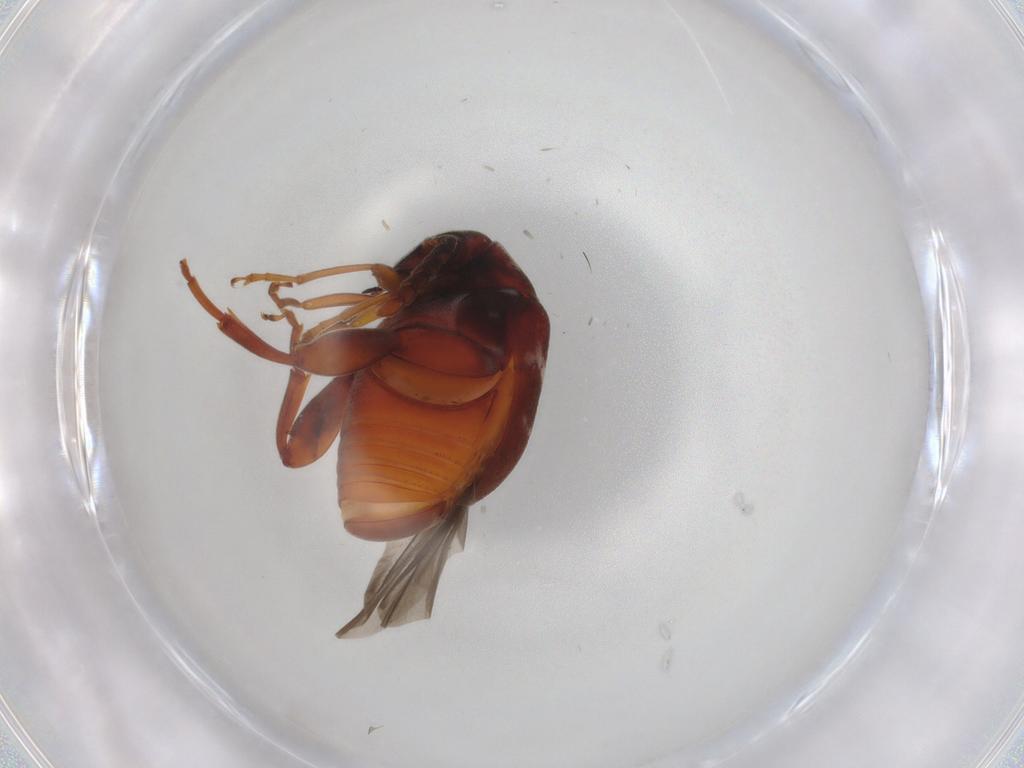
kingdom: Animalia
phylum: Arthropoda
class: Insecta
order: Coleoptera
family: Chrysomelidae
